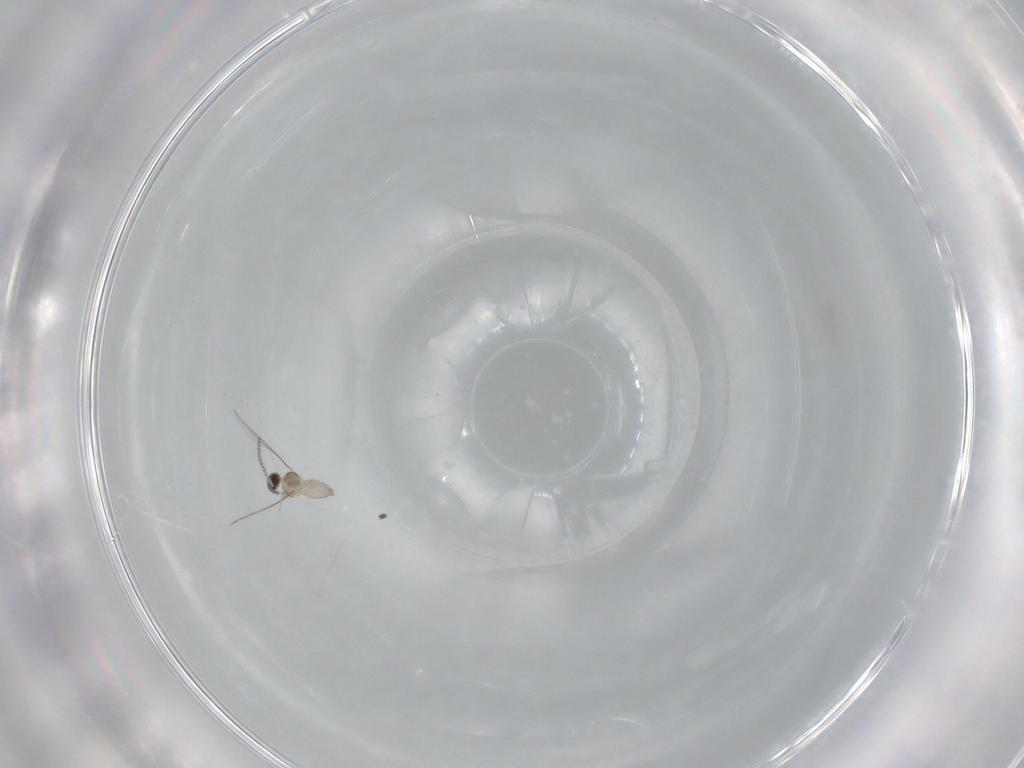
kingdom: Animalia
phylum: Arthropoda
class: Insecta
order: Diptera
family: Cecidomyiidae
